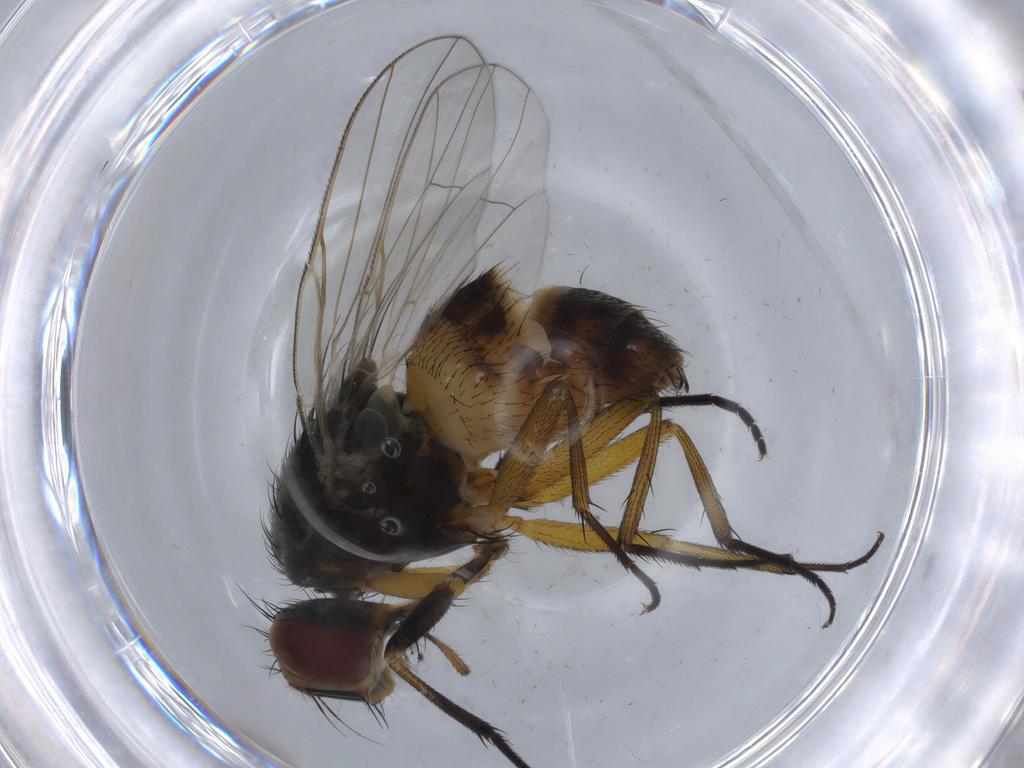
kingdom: Animalia
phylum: Arthropoda
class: Insecta
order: Diptera
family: Muscidae
